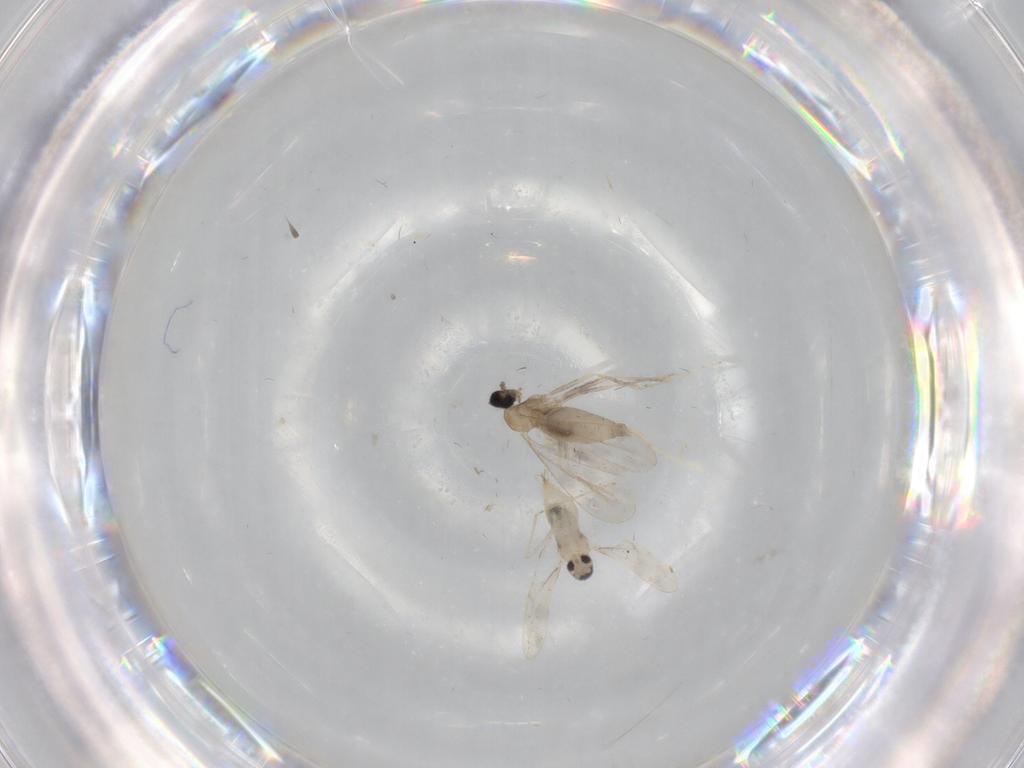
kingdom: Animalia
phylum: Arthropoda
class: Insecta
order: Diptera
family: Cecidomyiidae
